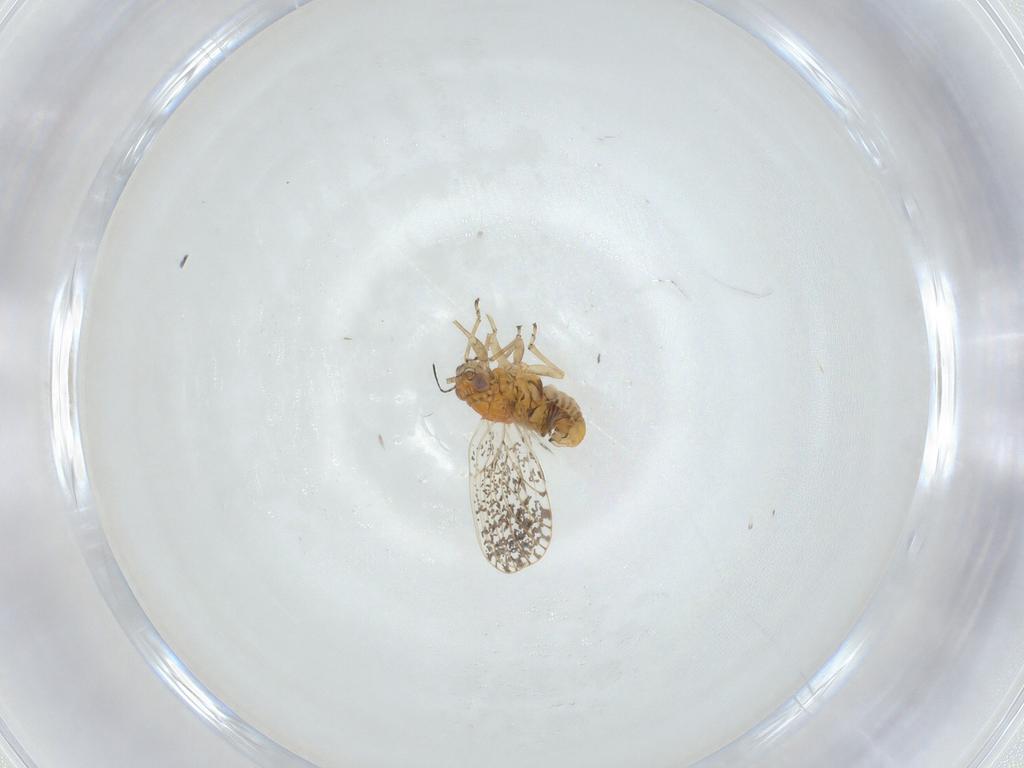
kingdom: Animalia
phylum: Arthropoda
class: Insecta
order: Hemiptera
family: Psyllidae
